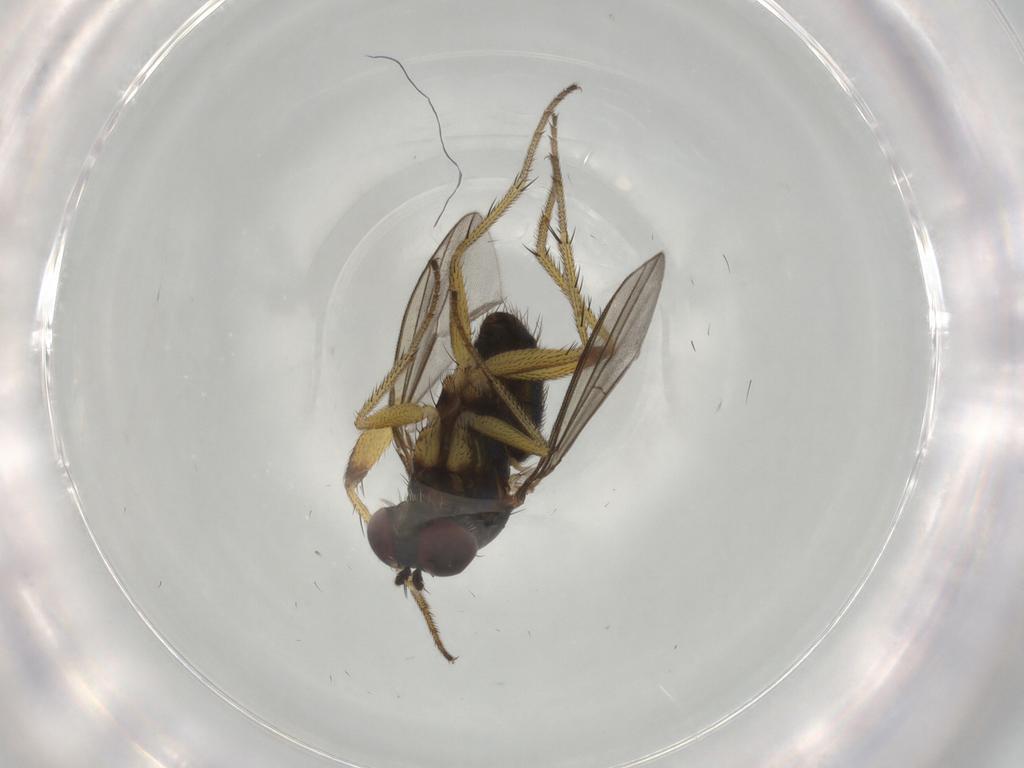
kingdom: Animalia
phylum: Arthropoda
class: Insecta
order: Diptera
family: Dolichopodidae
